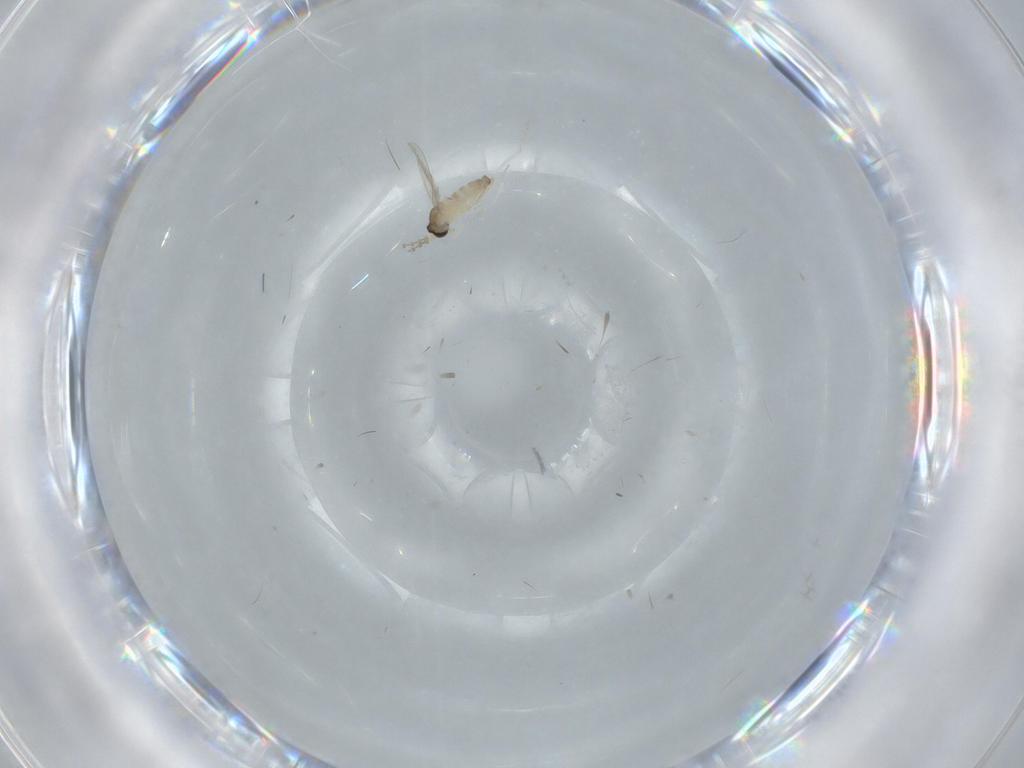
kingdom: Animalia
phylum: Arthropoda
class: Insecta
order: Diptera
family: Cecidomyiidae
